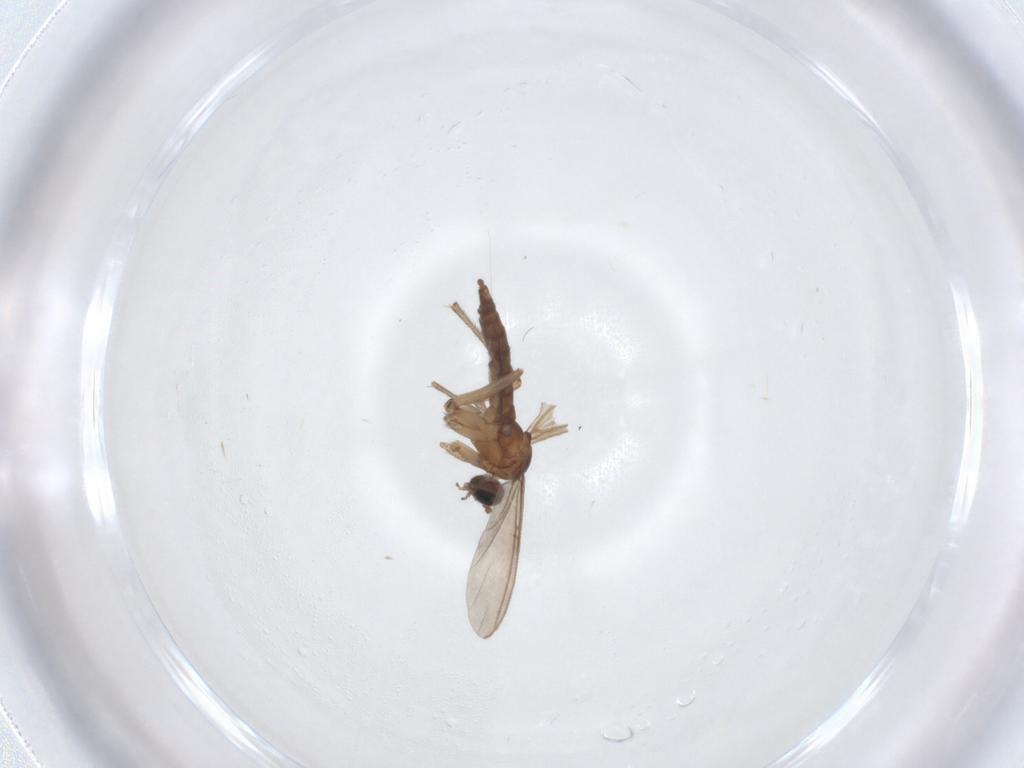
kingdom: Animalia
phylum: Arthropoda
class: Insecta
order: Diptera
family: Sciaridae
